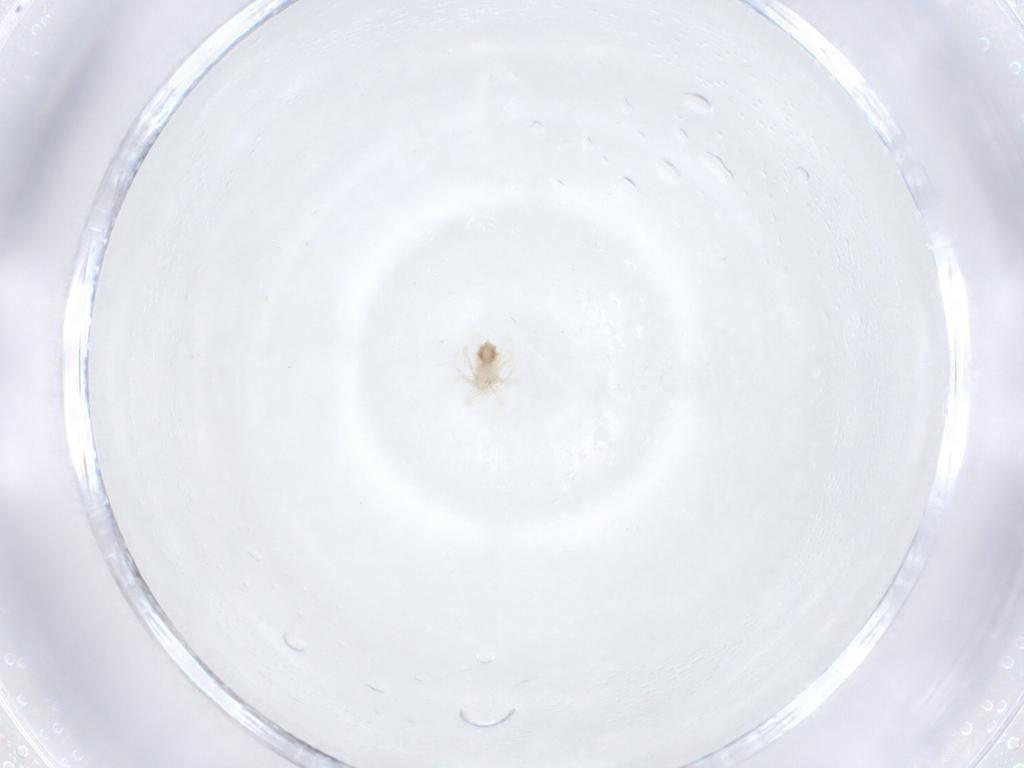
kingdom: Animalia
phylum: Arthropoda
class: Arachnida
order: Trombidiformes
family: Anystidae
